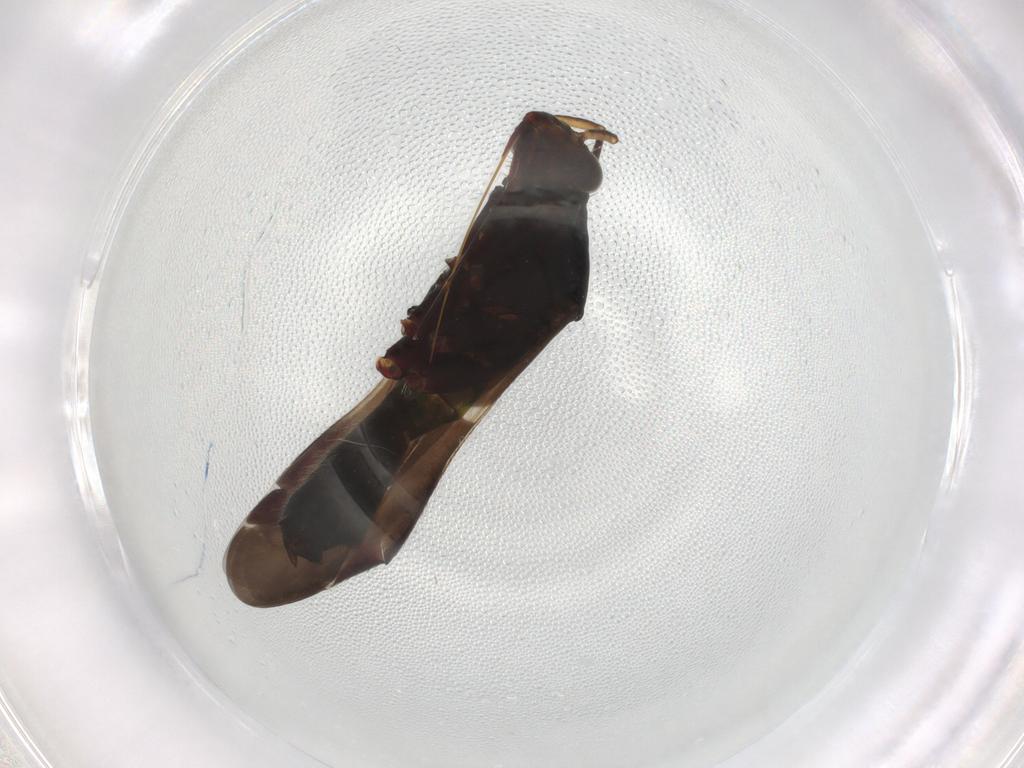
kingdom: Animalia
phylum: Arthropoda
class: Insecta
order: Hemiptera
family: Miridae
